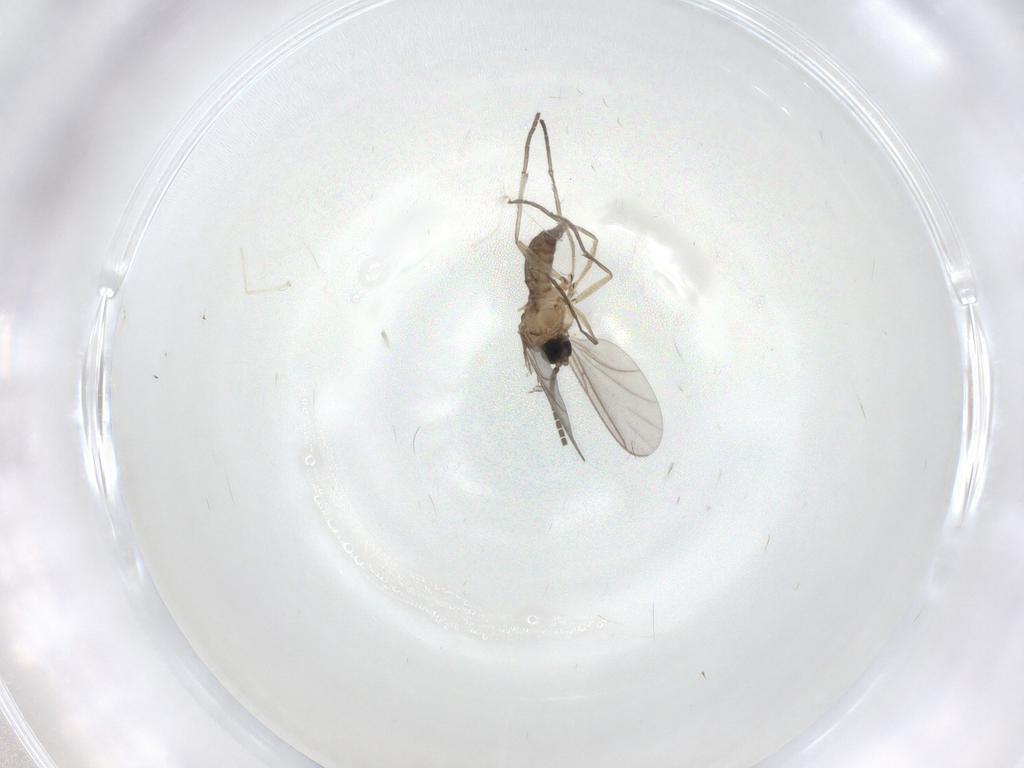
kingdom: Animalia
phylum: Arthropoda
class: Insecta
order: Diptera
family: Sciaridae
